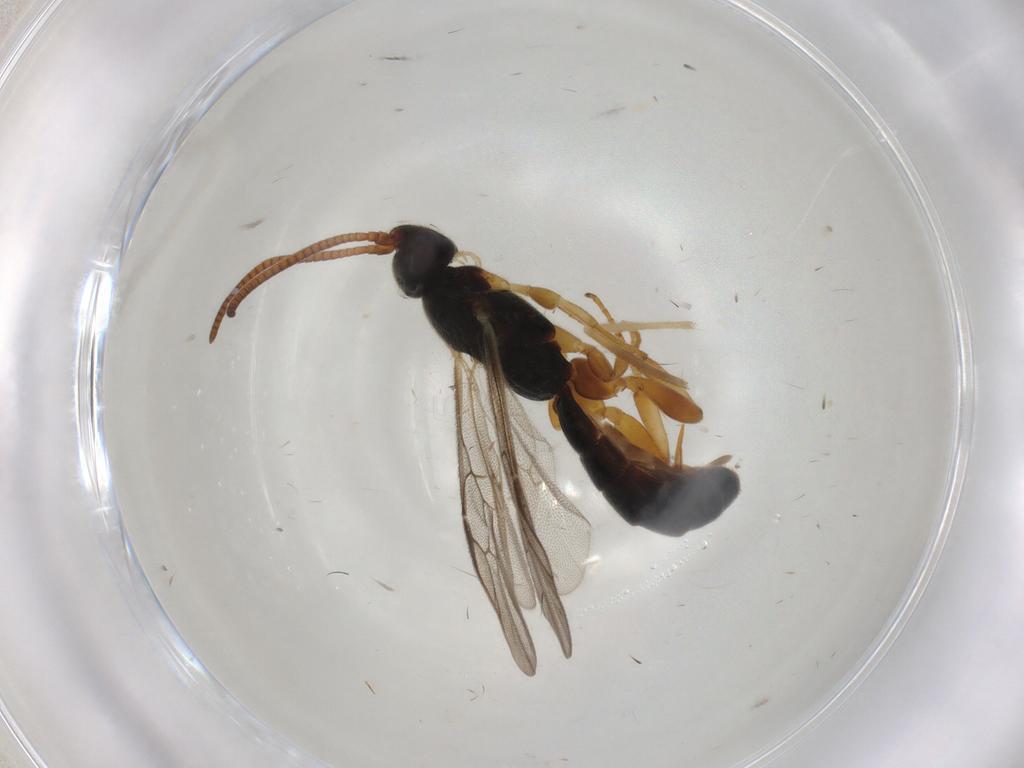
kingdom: Animalia
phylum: Arthropoda
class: Insecta
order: Hymenoptera
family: Ichneumonidae
